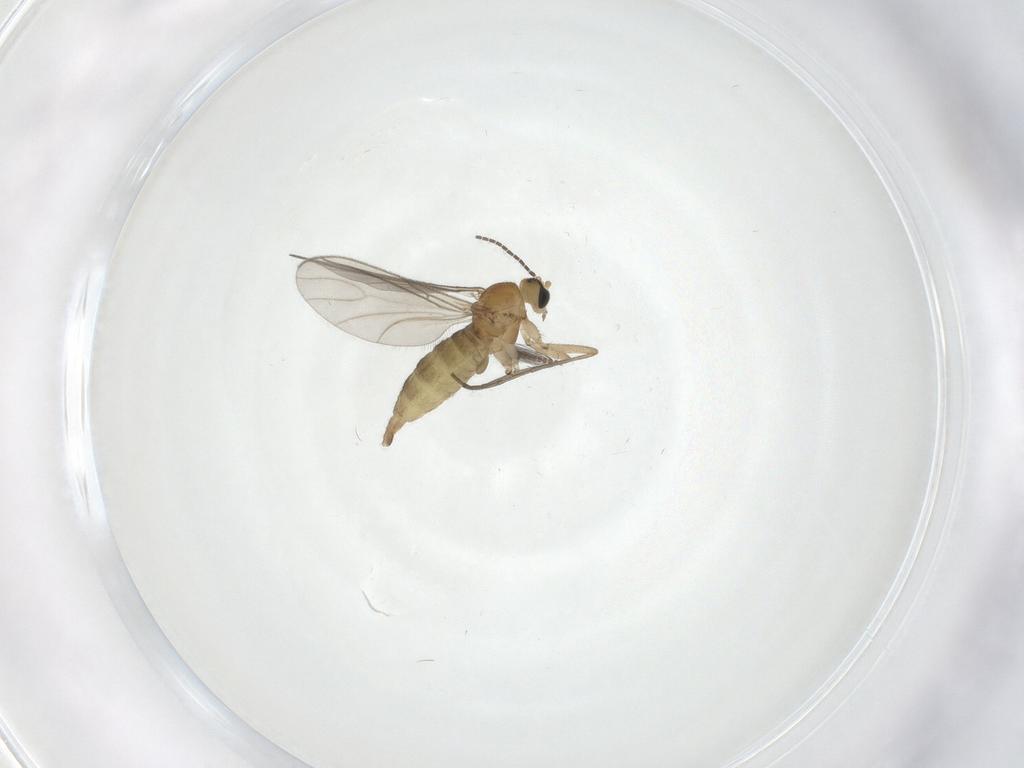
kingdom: Animalia
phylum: Arthropoda
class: Insecta
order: Diptera
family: Sciaridae
